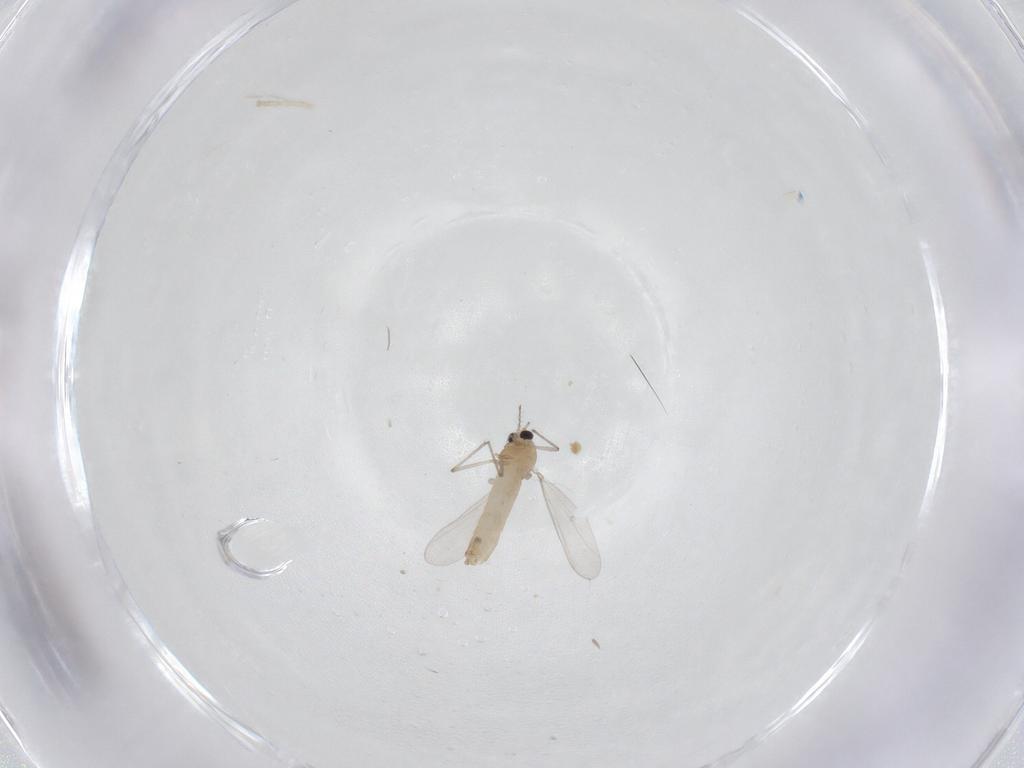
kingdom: Animalia
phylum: Arthropoda
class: Insecta
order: Diptera
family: Chironomidae
